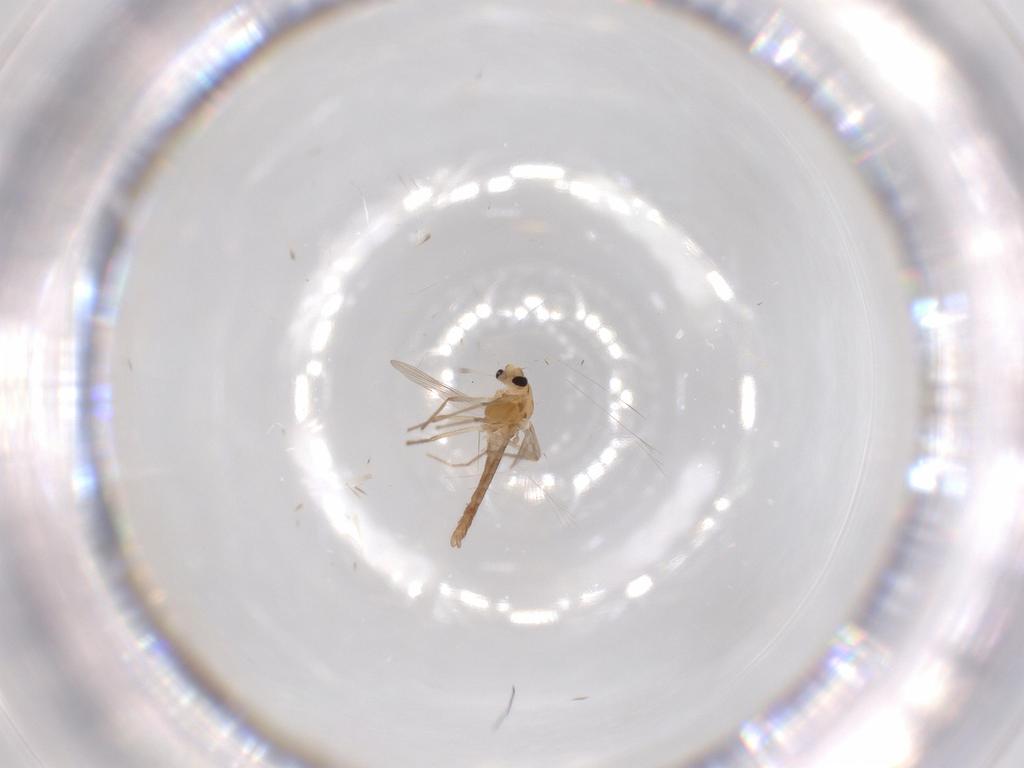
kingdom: Animalia
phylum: Arthropoda
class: Insecta
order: Diptera
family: Chironomidae
